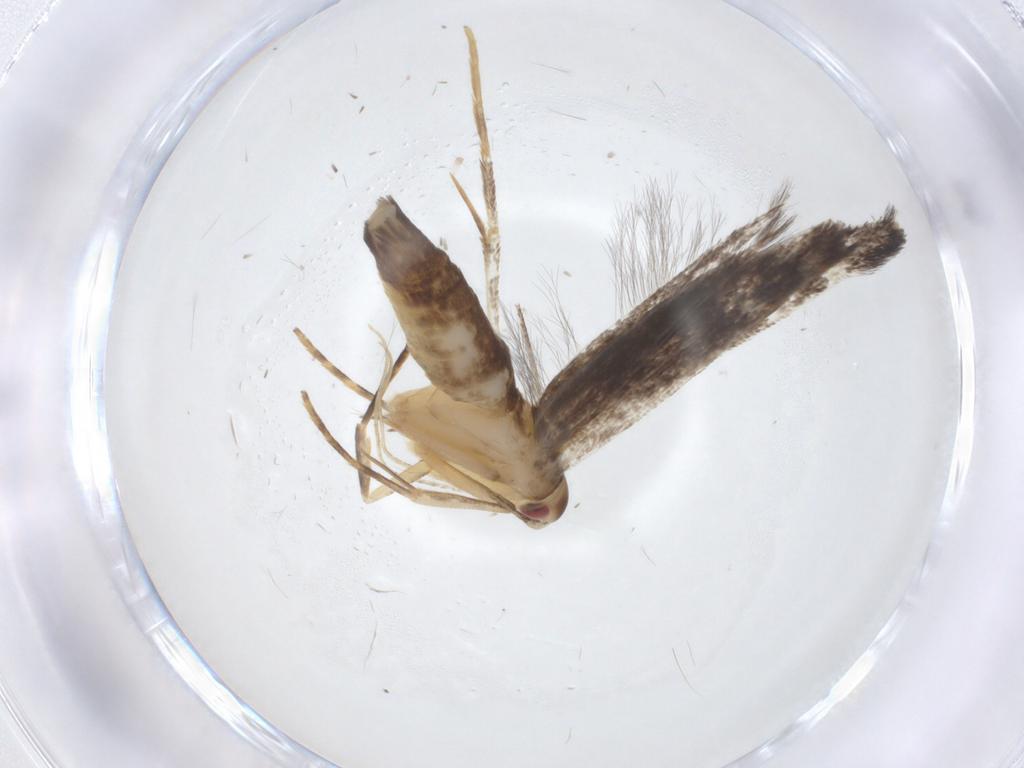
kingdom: Animalia
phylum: Arthropoda
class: Insecta
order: Lepidoptera
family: Cosmopterigidae
